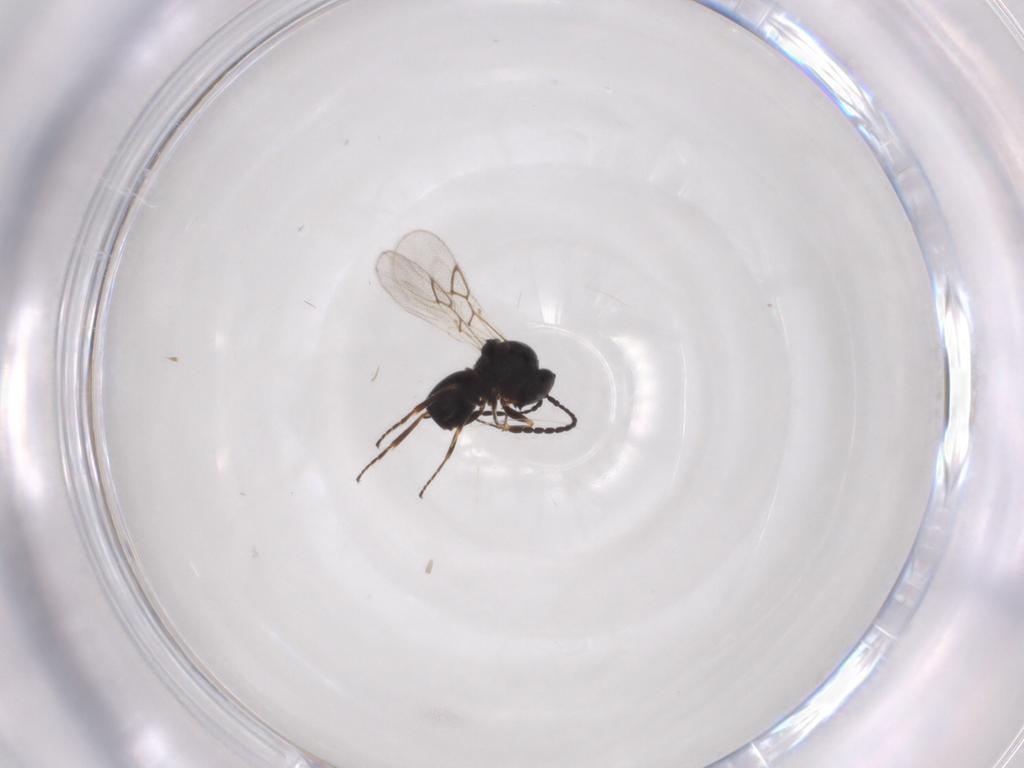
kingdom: Animalia
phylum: Arthropoda
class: Insecta
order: Hymenoptera
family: Figitidae
